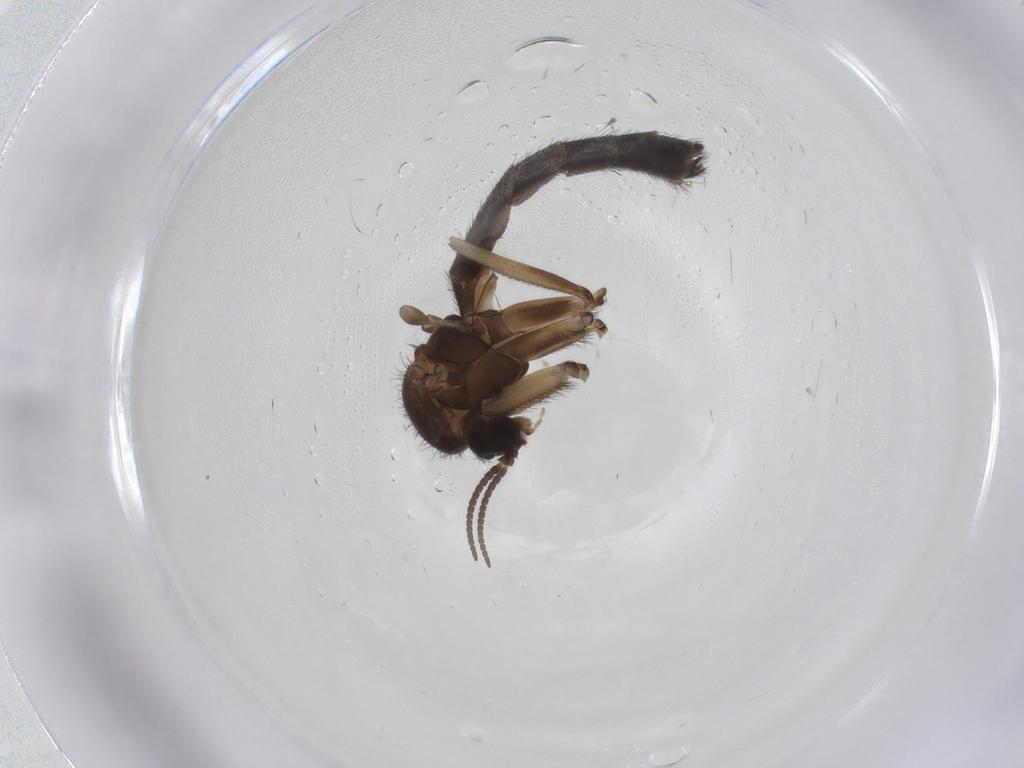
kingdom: Animalia
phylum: Arthropoda
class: Insecta
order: Diptera
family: Keroplatidae
